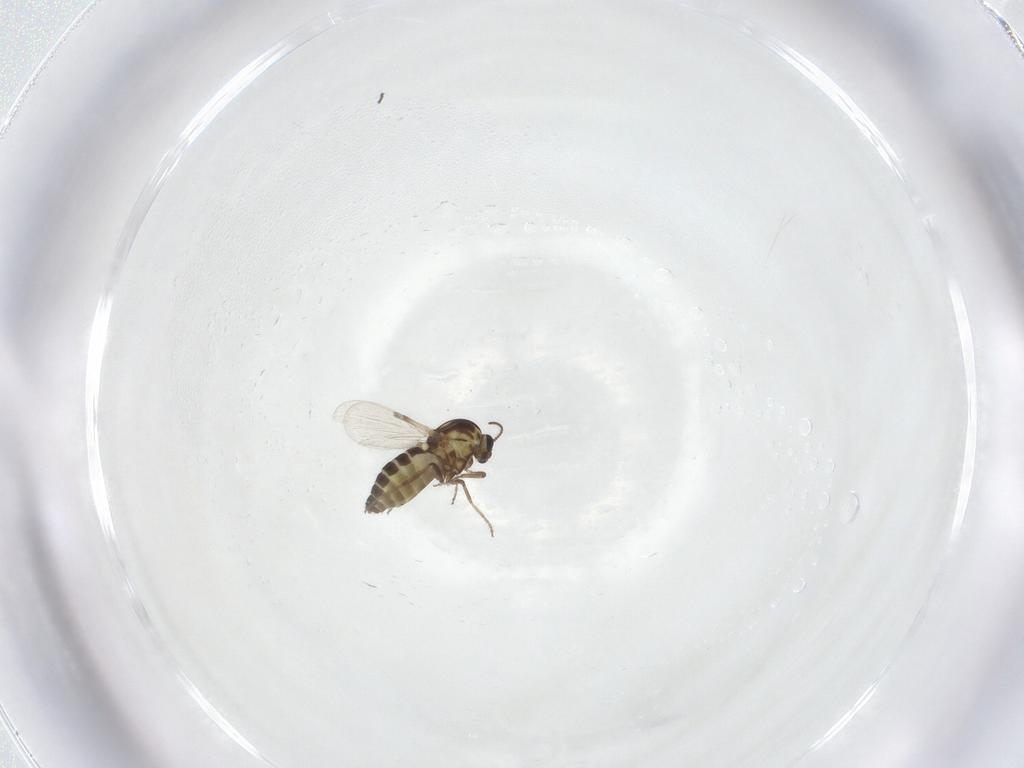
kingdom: Animalia
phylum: Arthropoda
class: Insecta
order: Diptera
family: Ceratopogonidae
